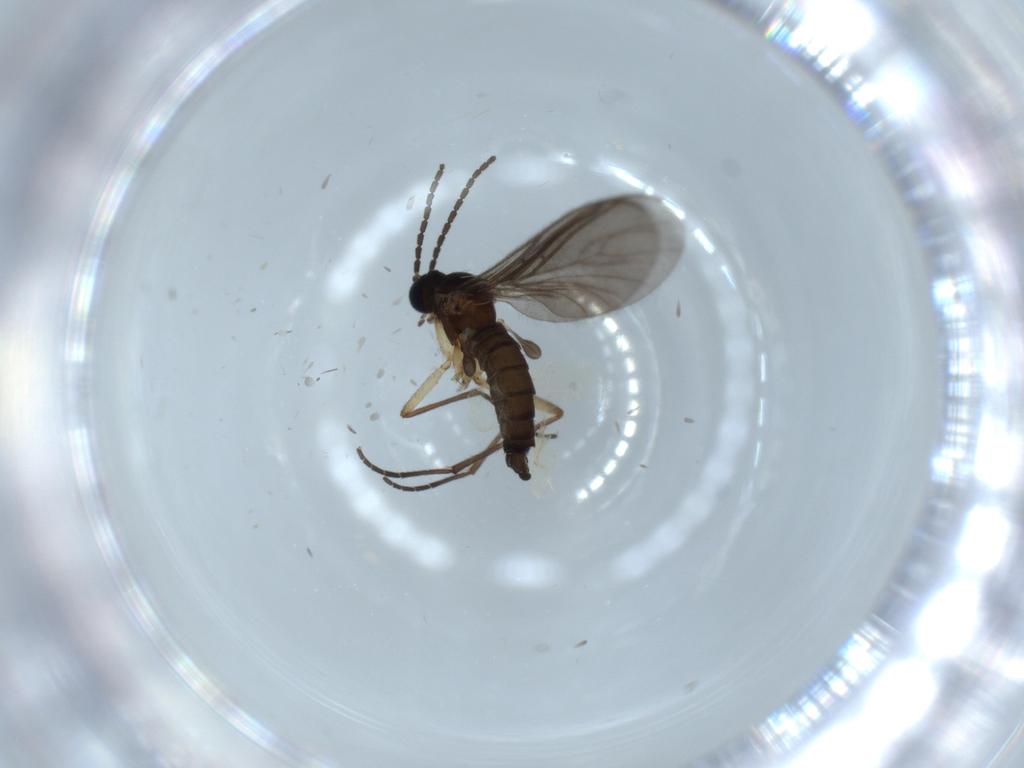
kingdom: Animalia
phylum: Arthropoda
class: Insecta
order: Diptera
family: Sciaridae
